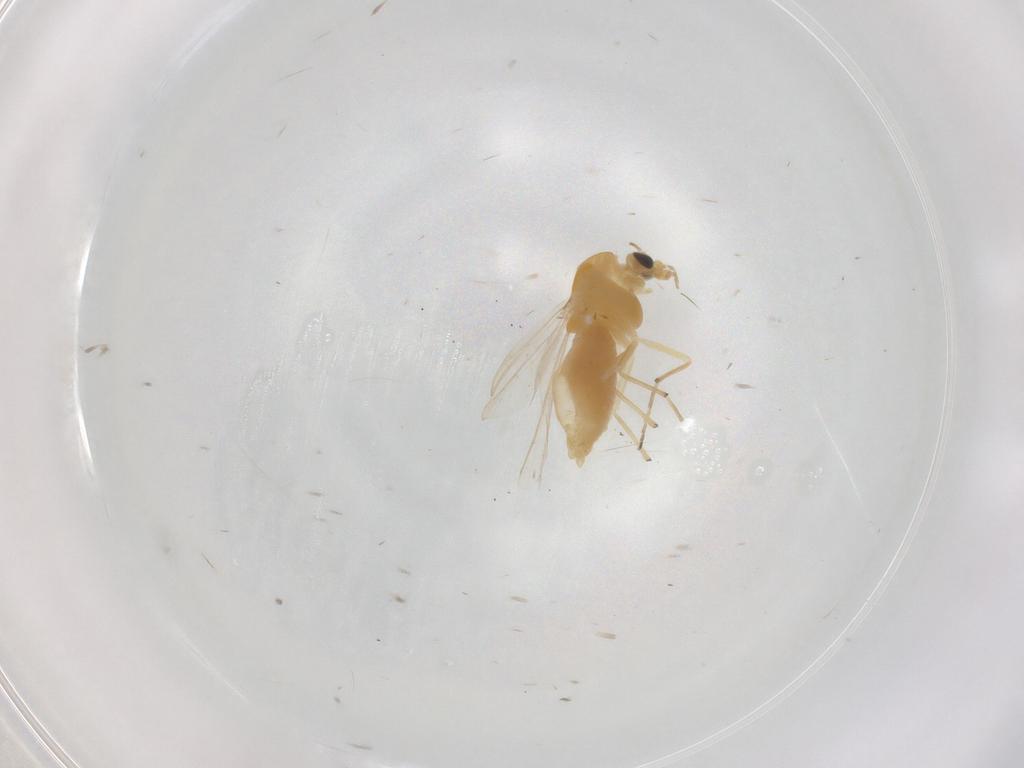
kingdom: Animalia
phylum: Arthropoda
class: Insecta
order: Diptera
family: Chironomidae
